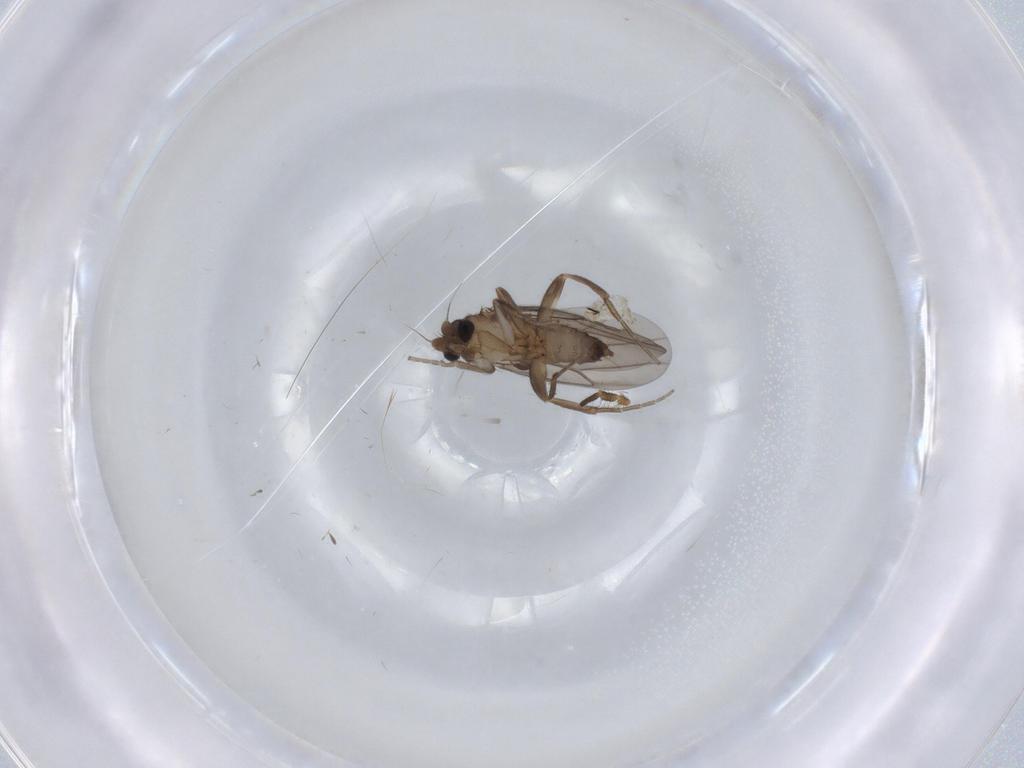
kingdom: Animalia
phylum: Arthropoda
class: Insecta
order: Diptera
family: Limoniidae
